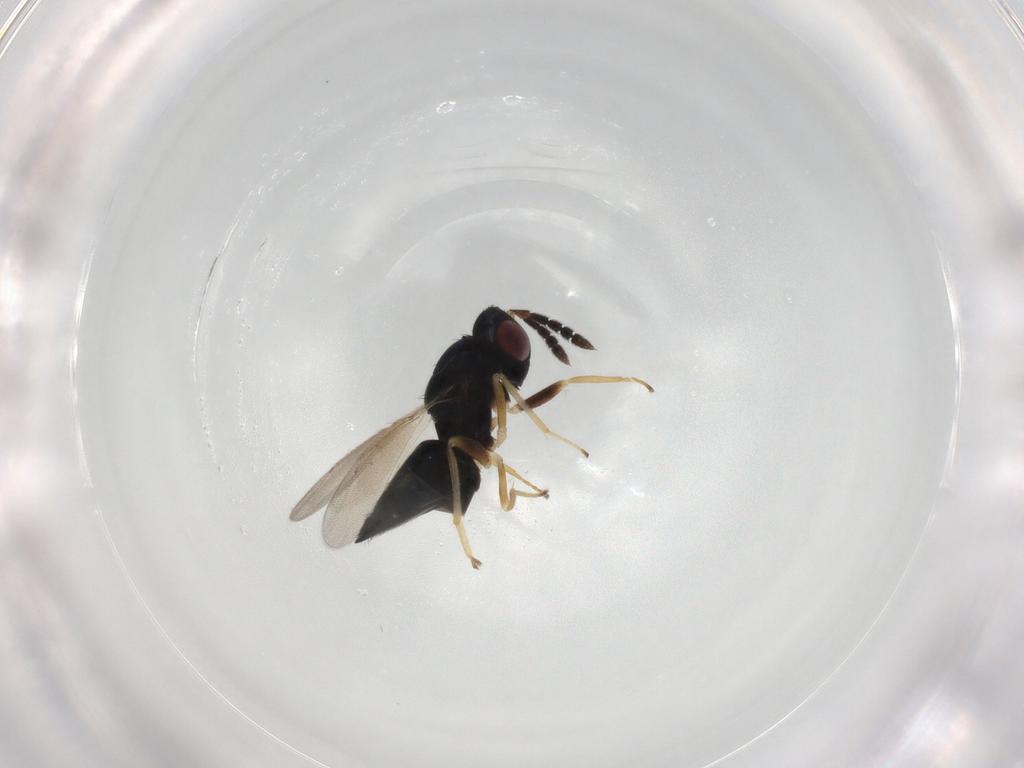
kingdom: Animalia
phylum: Arthropoda
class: Insecta
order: Hymenoptera
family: Eulophidae
